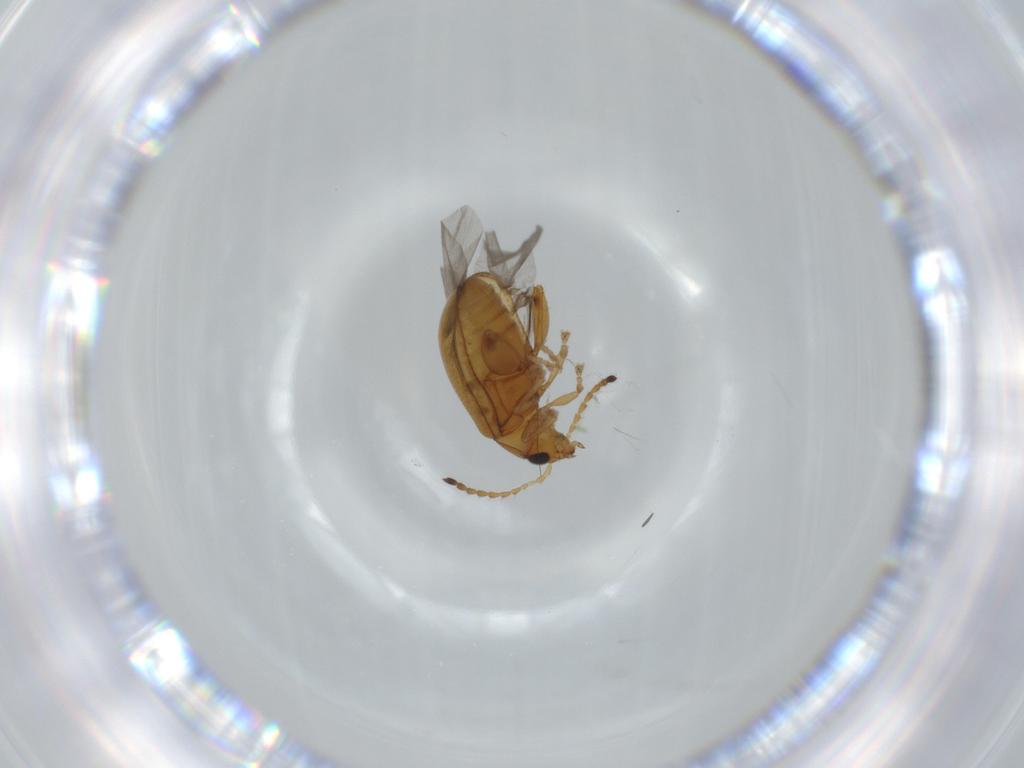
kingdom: Animalia
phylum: Arthropoda
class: Insecta
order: Coleoptera
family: Chrysomelidae
